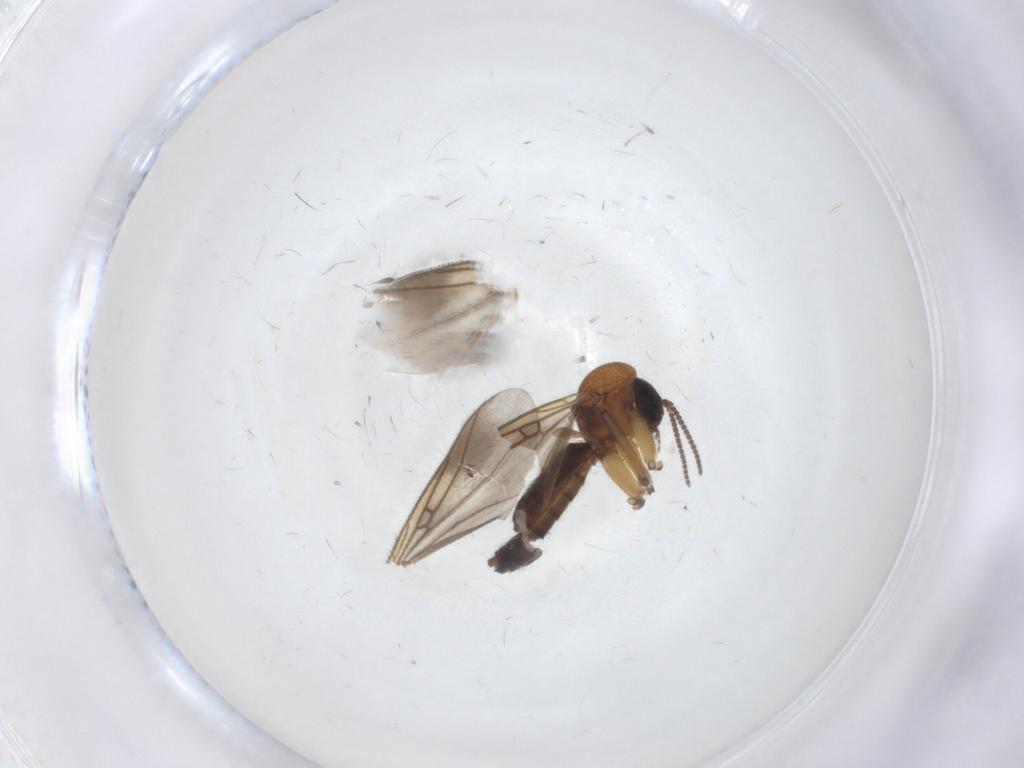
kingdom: Animalia
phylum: Arthropoda
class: Insecta
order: Diptera
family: Mycetophilidae
